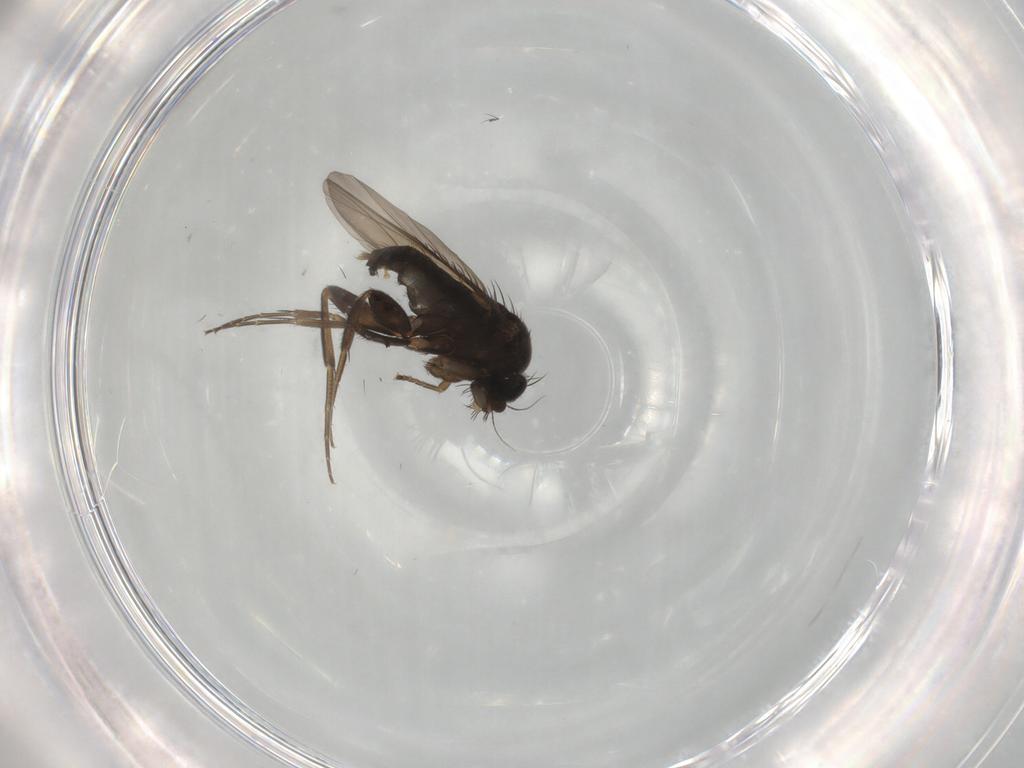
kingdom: Animalia
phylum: Arthropoda
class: Insecta
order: Diptera
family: Phoridae
